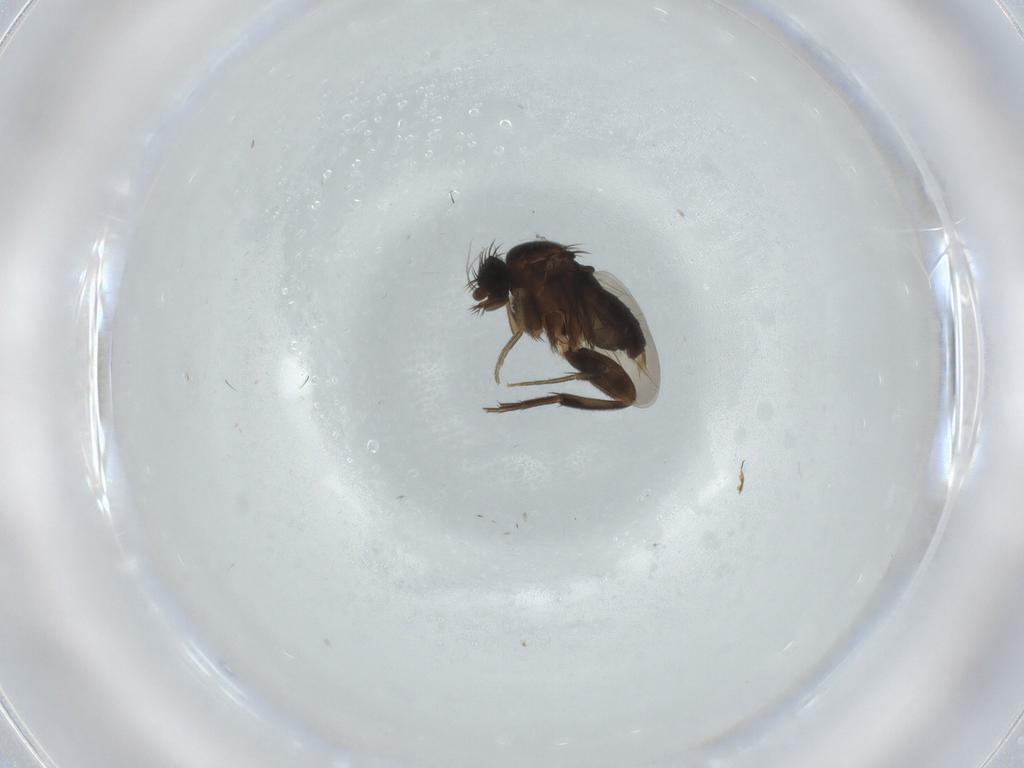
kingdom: Animalia
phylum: Arthropoda
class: Insecta
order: Diptera
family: Phoridae
